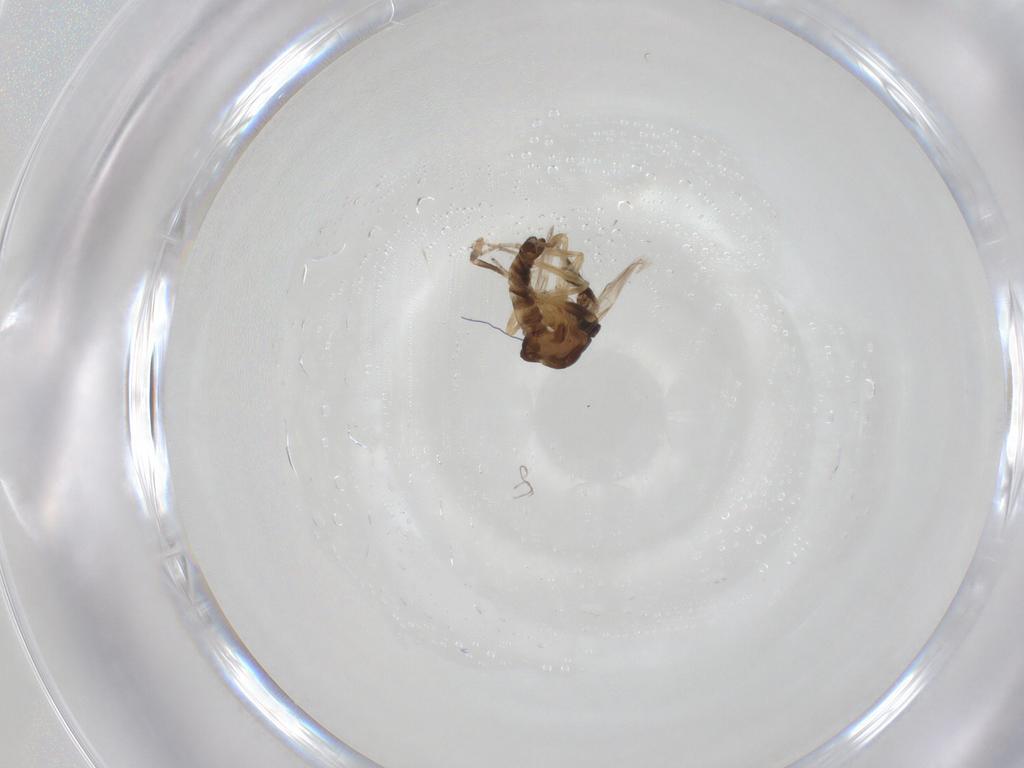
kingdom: Animalia
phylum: Arthropoda
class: Insecta
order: Diptera
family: Ceratopogonidae
